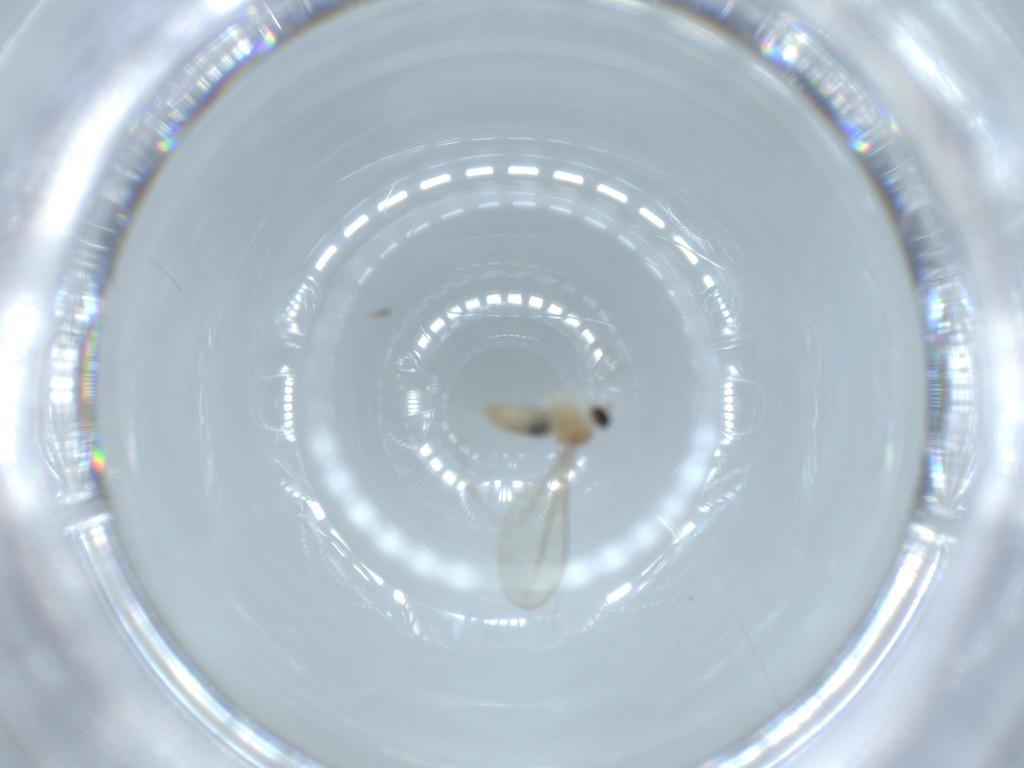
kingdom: Animalia
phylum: Arthropoda
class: Insecta
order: Diptera
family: Cecidomyiidae
